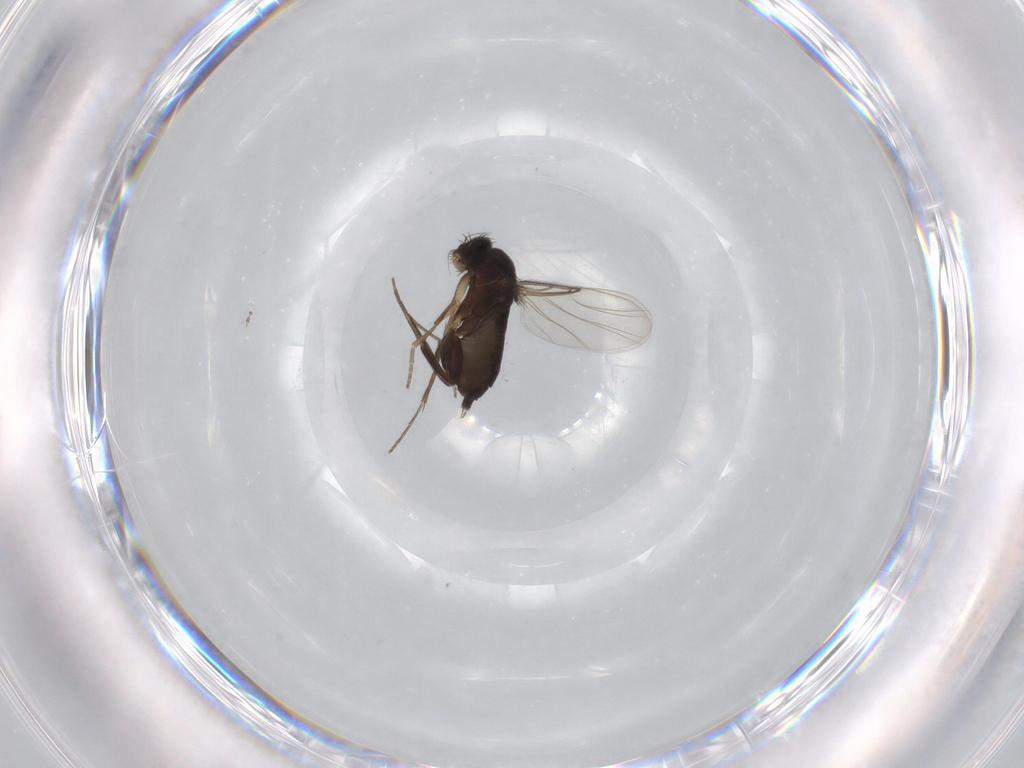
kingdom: Animalia
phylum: Arthropoda
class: Insecta
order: Diptera
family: Phoridae
